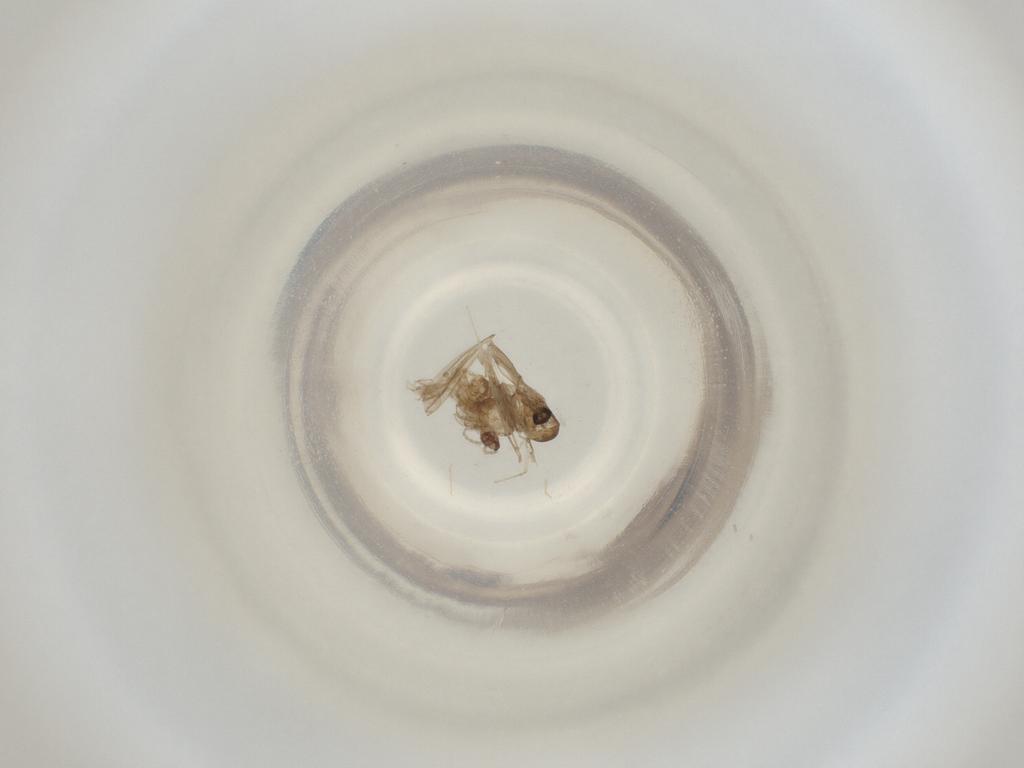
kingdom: Animalia
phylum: Arthropoda
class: Insecta
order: Diptera
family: Cecidomyiidae
